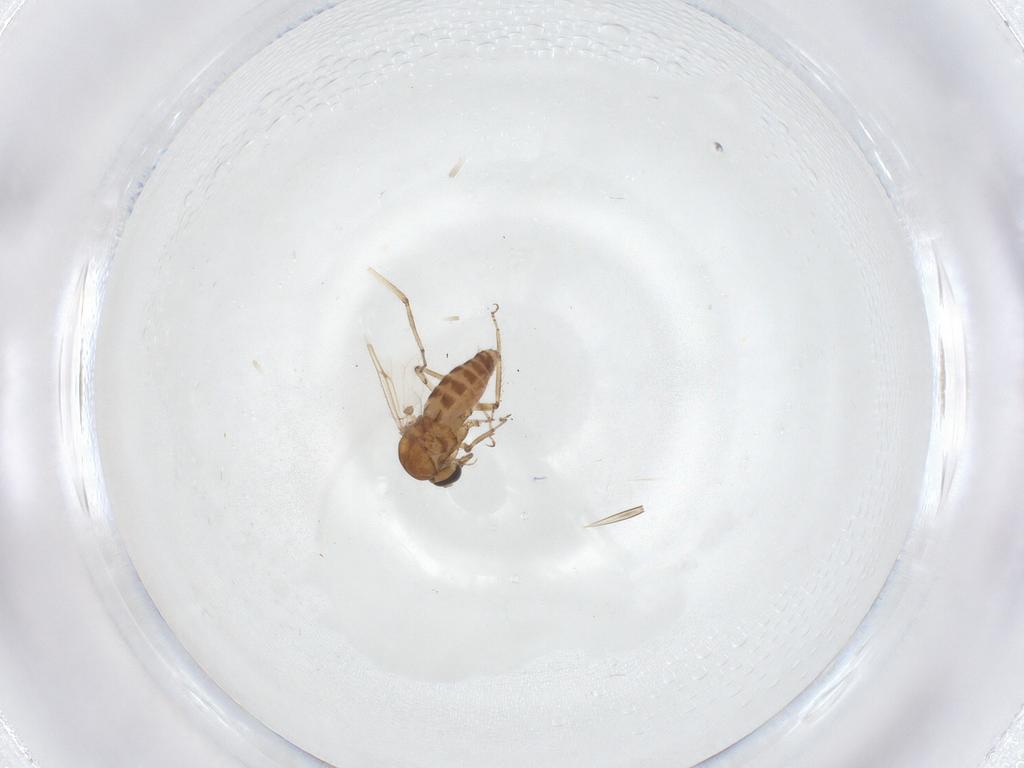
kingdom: Animalia
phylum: Arthropoda
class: Insecta
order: Diptera
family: Ceratopogonidae
